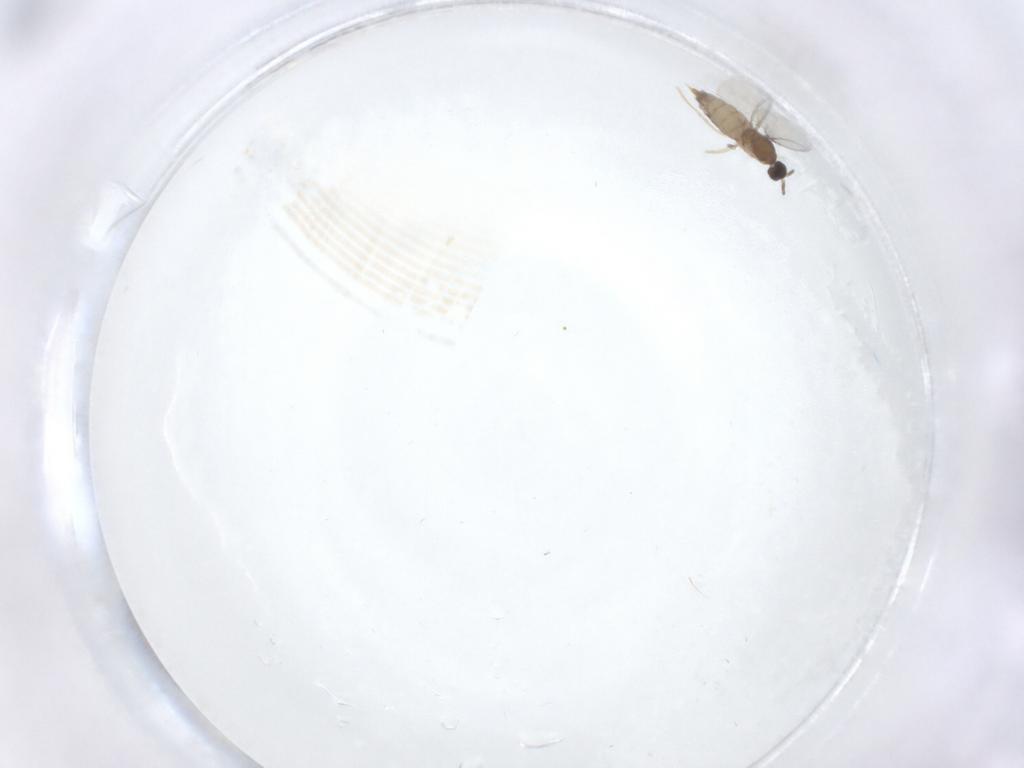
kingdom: Animalia
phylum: Arthropoda
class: Insecta
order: Diptera
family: Cecidomyiidae
